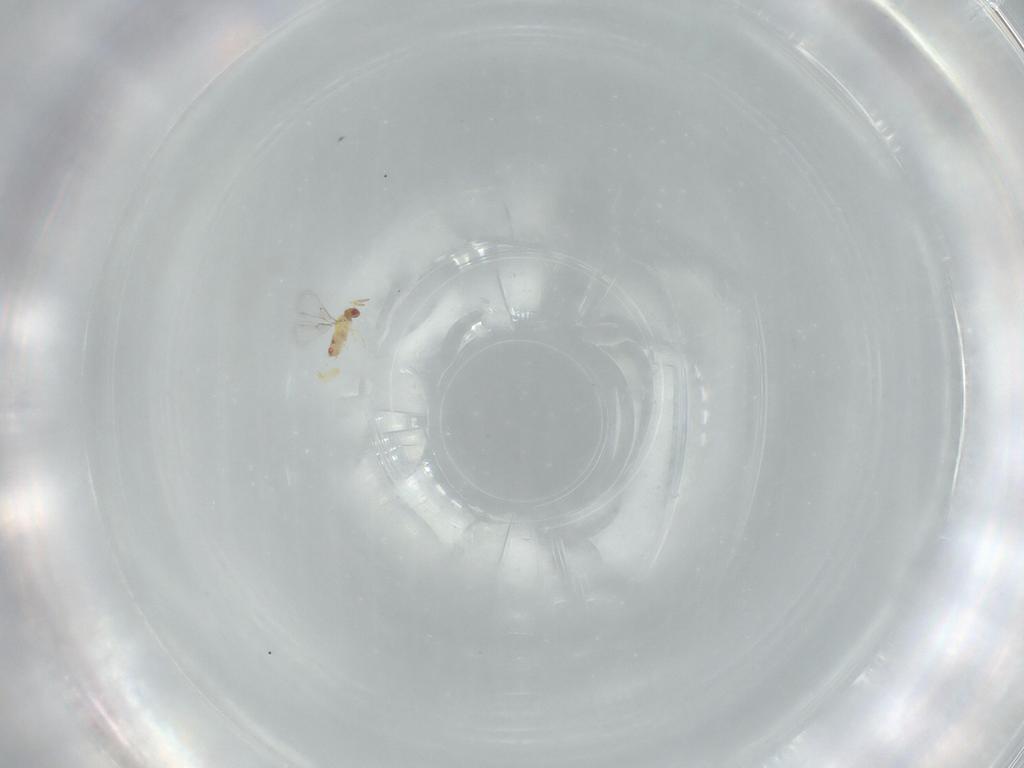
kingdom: Animalia
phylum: Arthropoda
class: Insecta
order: Hymenoptera
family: Trichogrammatidae
